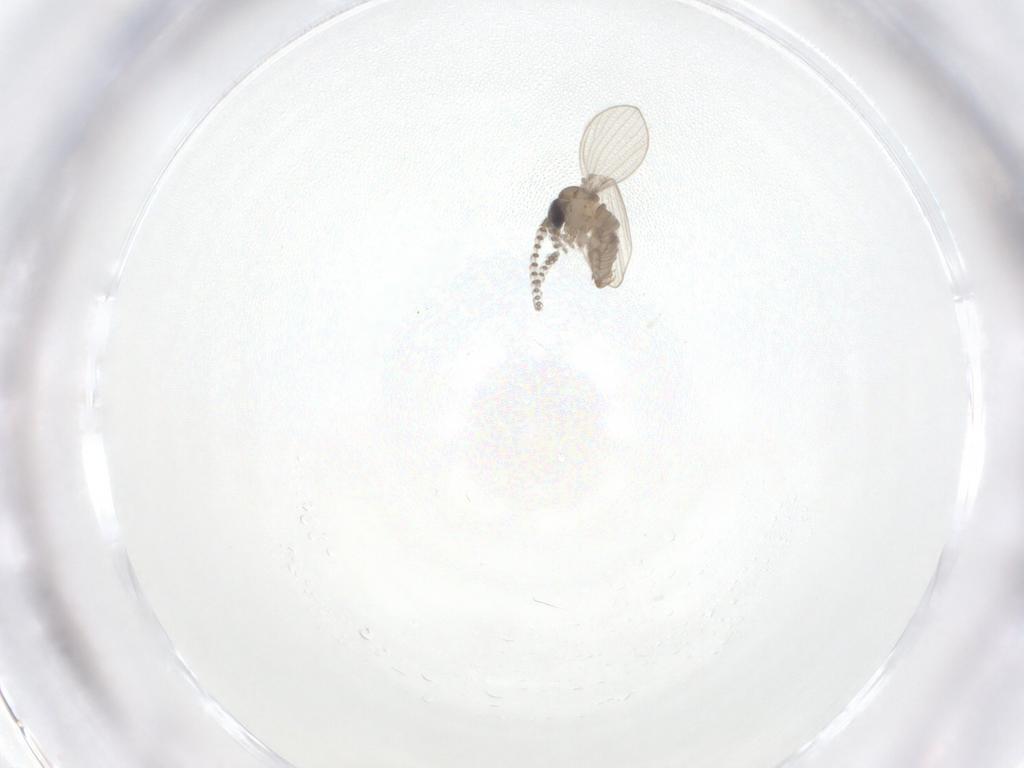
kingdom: Animalia
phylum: Arthropoda
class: Insecta
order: Diptera
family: Psychodidae
